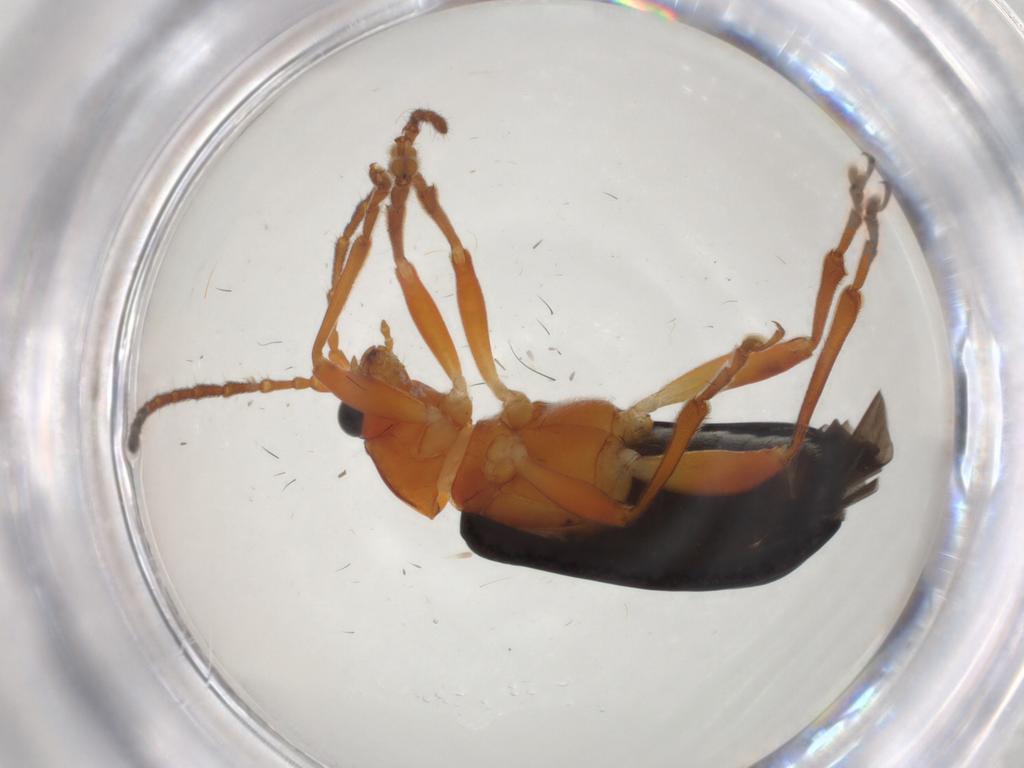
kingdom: Animalia
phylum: Arthropoda
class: Insecta
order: Coleoptera
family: Chrysomelidae
